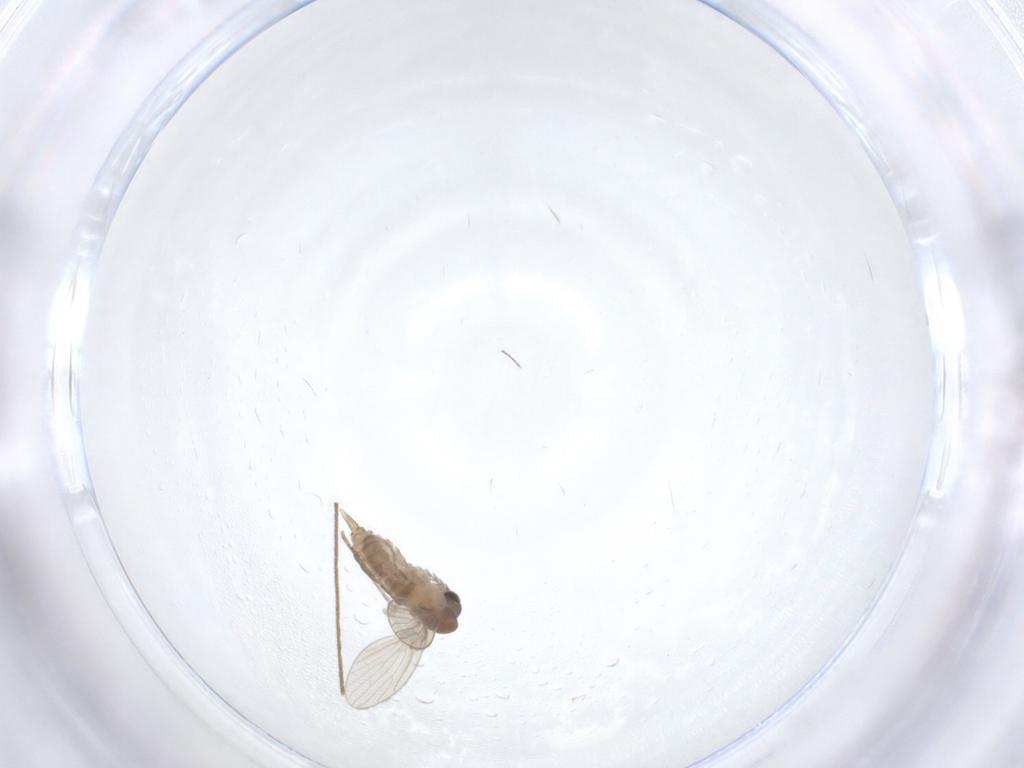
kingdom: Animalia
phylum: Arthropoda
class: Insecta
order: Diptera
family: Limoniidae
